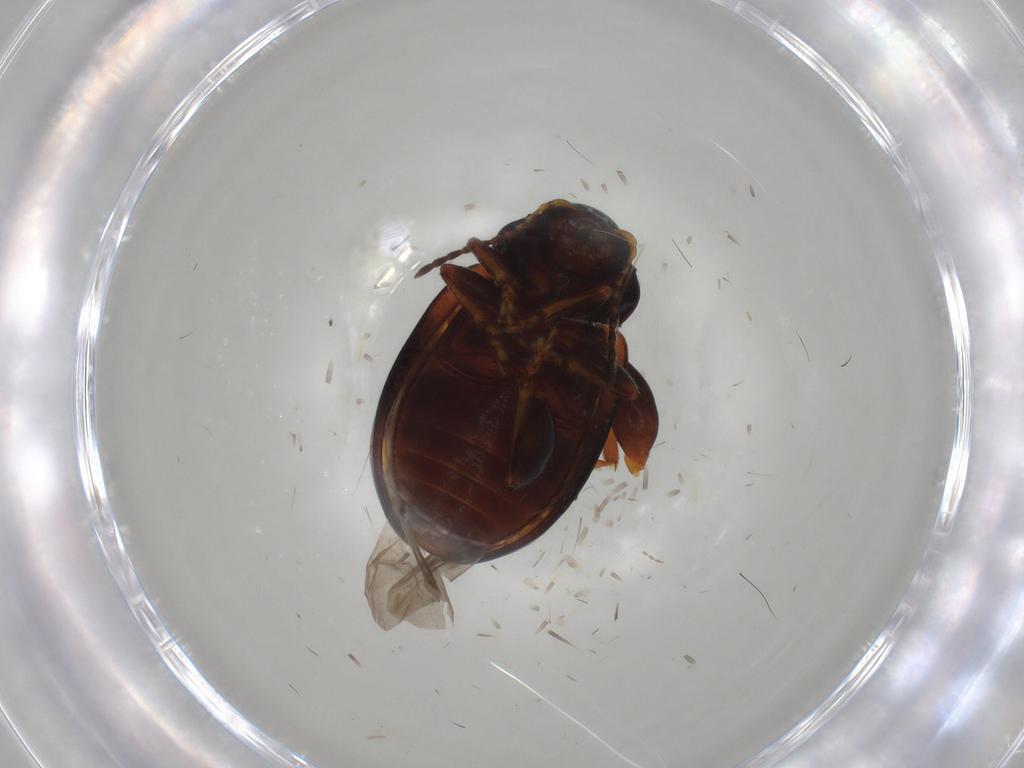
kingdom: Animalia
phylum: Arthropoda
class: Insecta
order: Coleoptera
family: Chrysomelidae
